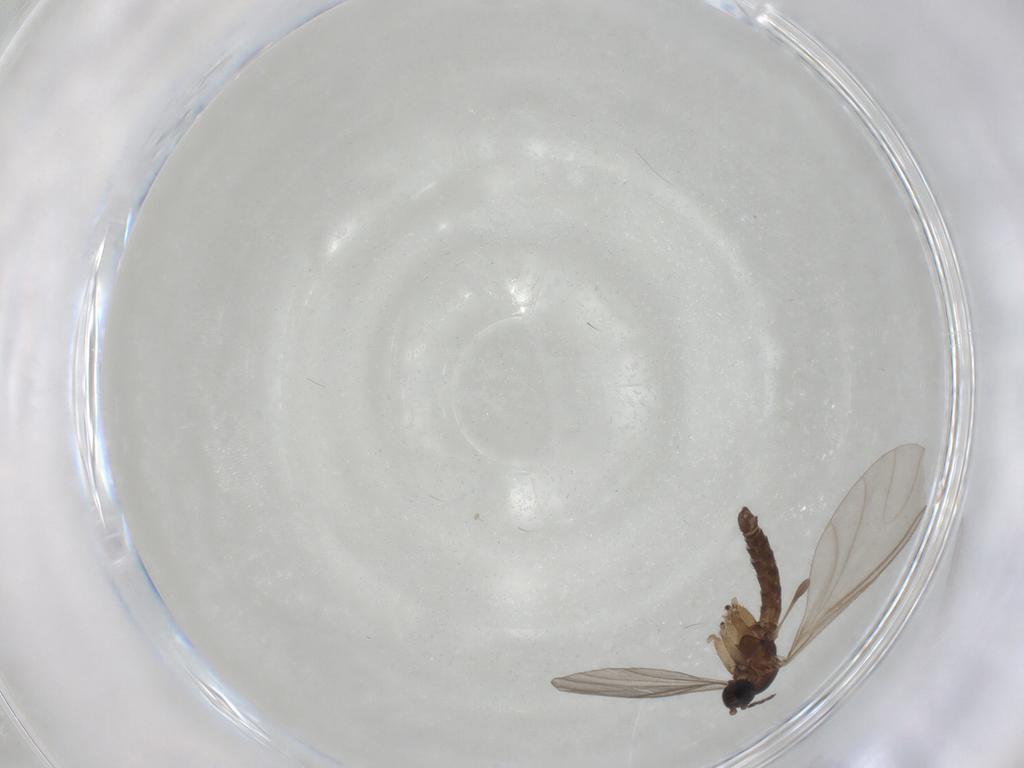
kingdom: Animalia
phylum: Arthropoda
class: Insecta
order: Diptera
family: Sciaridae
